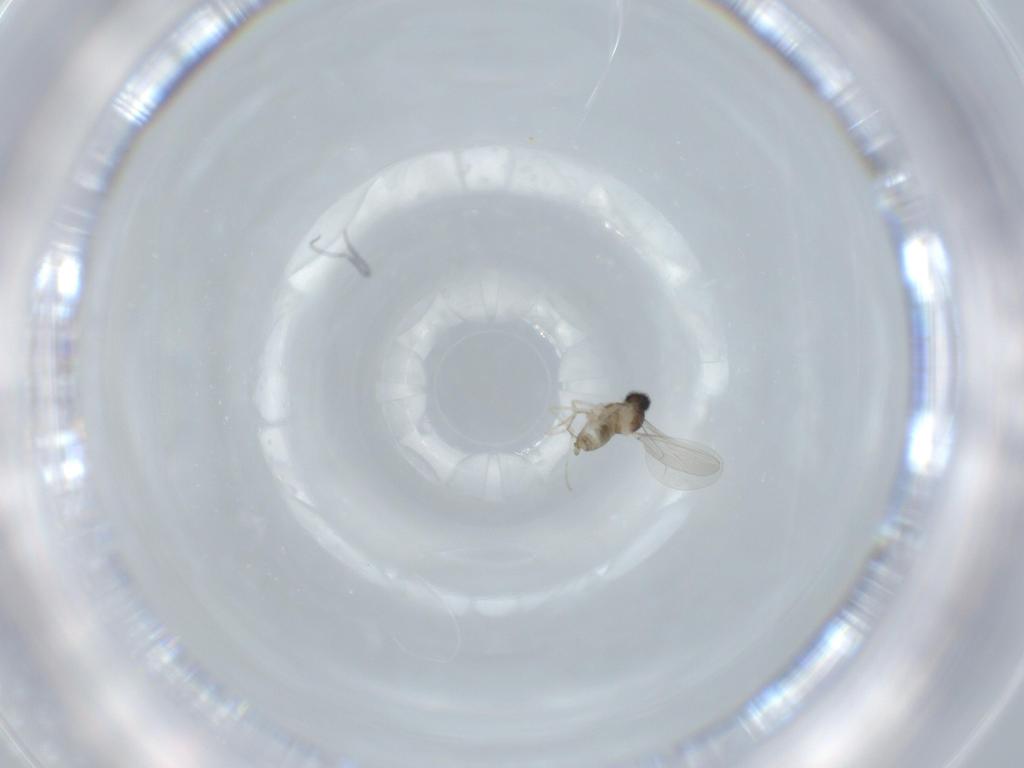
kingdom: Animalia
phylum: Arthropoda
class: Insecta
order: Diptera
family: Cecidomyiidae
